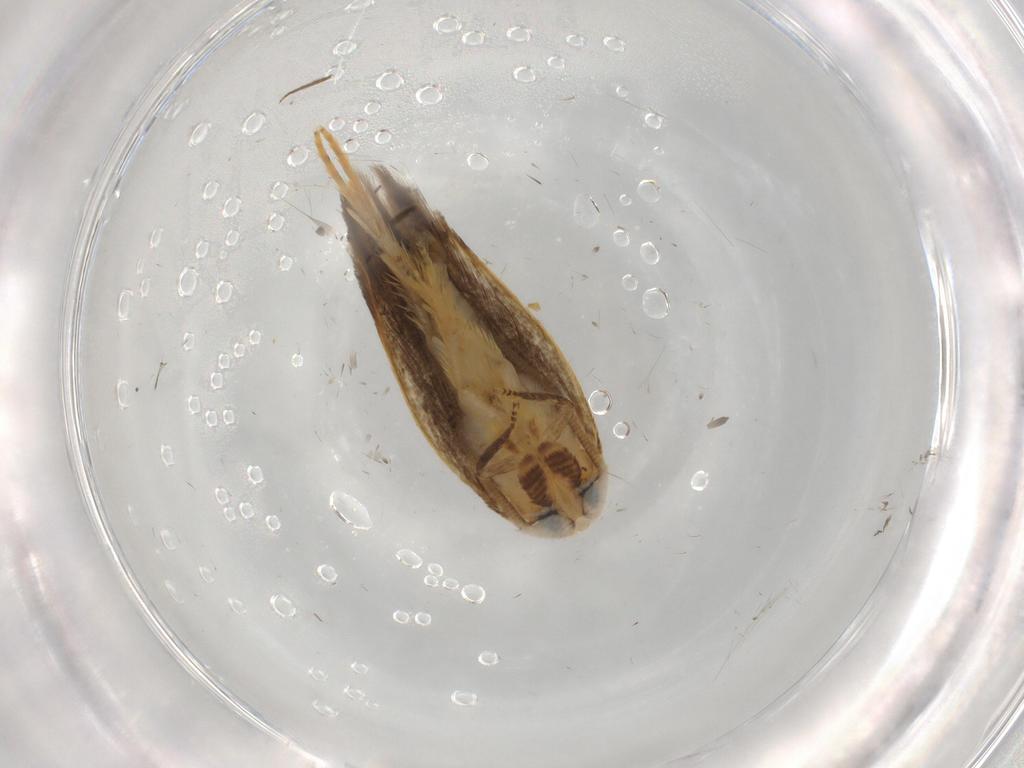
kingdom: Animalia
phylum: Arthropoda
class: Insecta
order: Lepidoptera
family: Opostegidae
